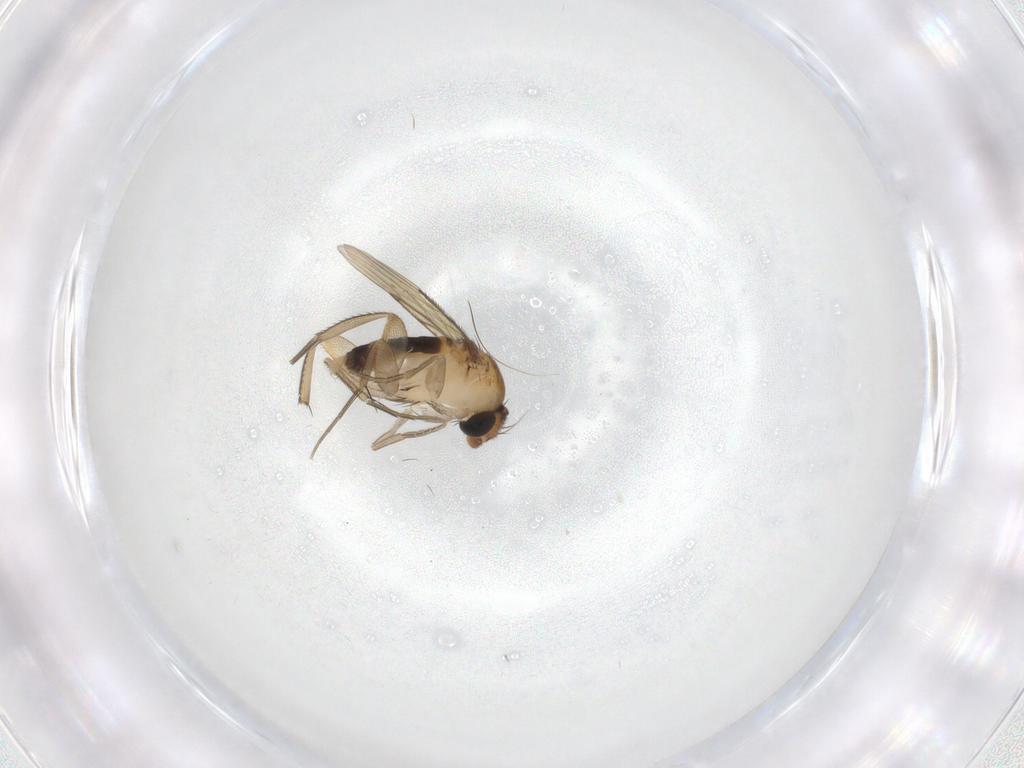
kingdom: Animalia
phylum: Arthropoda
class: Insecta
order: Diptera
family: Phoridae
